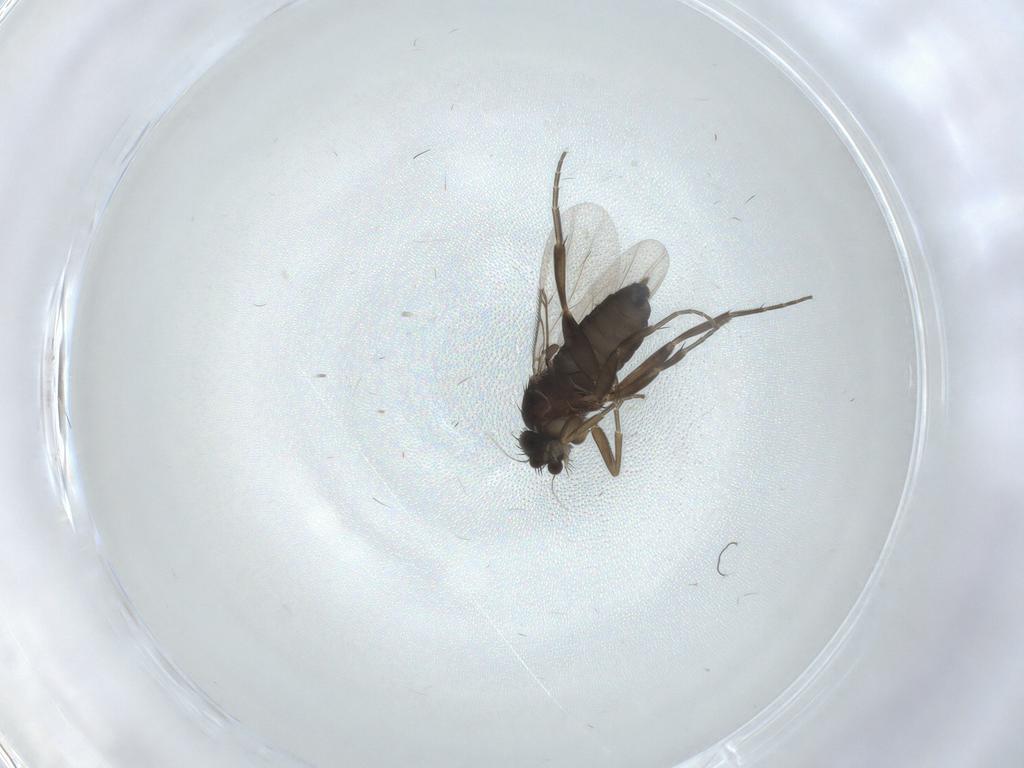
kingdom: Animalia
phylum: Arthropoda
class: Insecta
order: Diptera
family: Phoridae
